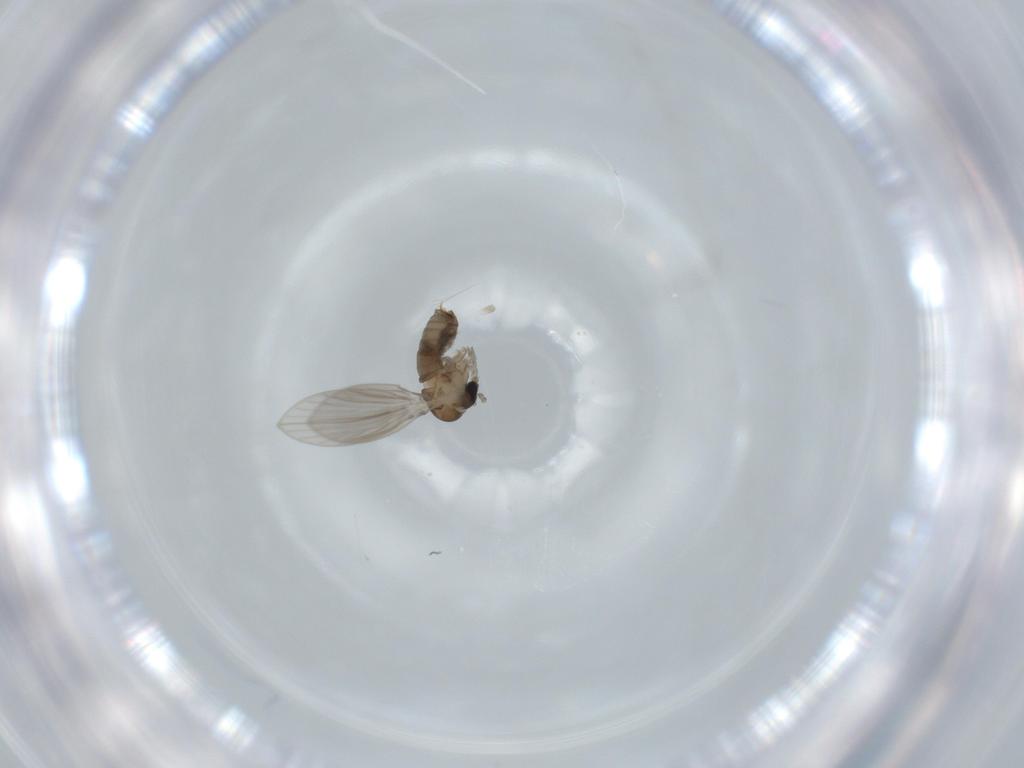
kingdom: Animalia
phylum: Arthropoda
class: Insecta
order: Diptera
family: Psychodidae
